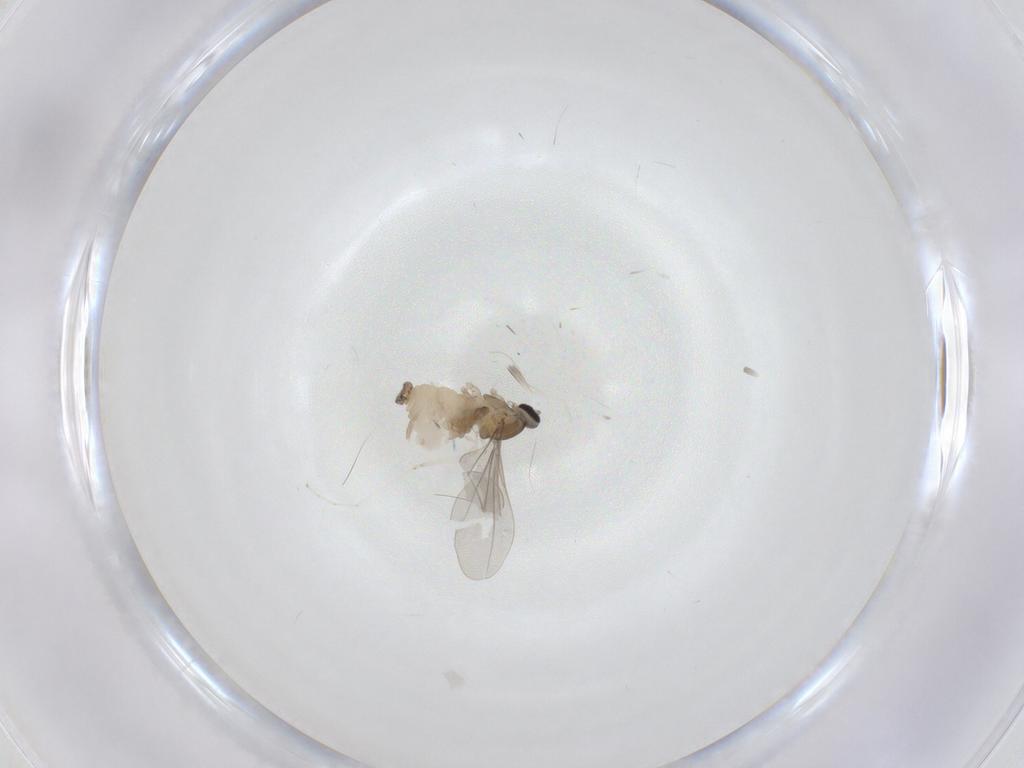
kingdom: Animalia
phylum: Arthropoda
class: Insecta
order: Diptera
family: Cecidomyiidae
